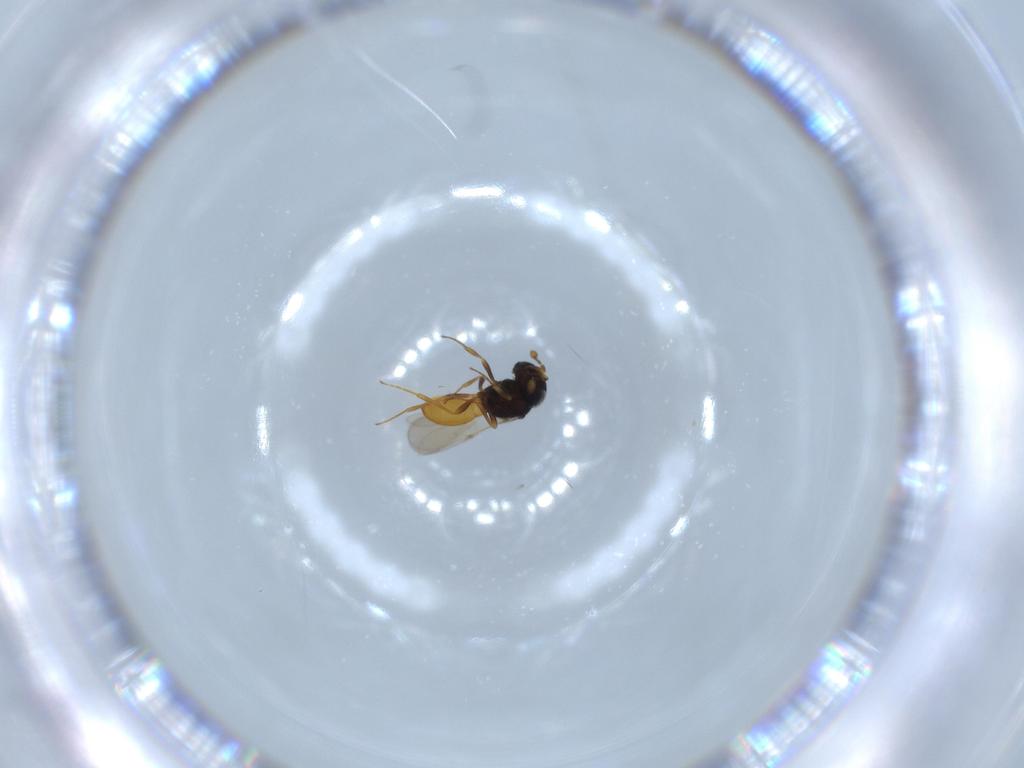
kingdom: Animalia
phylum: Arthropoda
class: Insecta
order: Hymenoptera
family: Scelionidae
